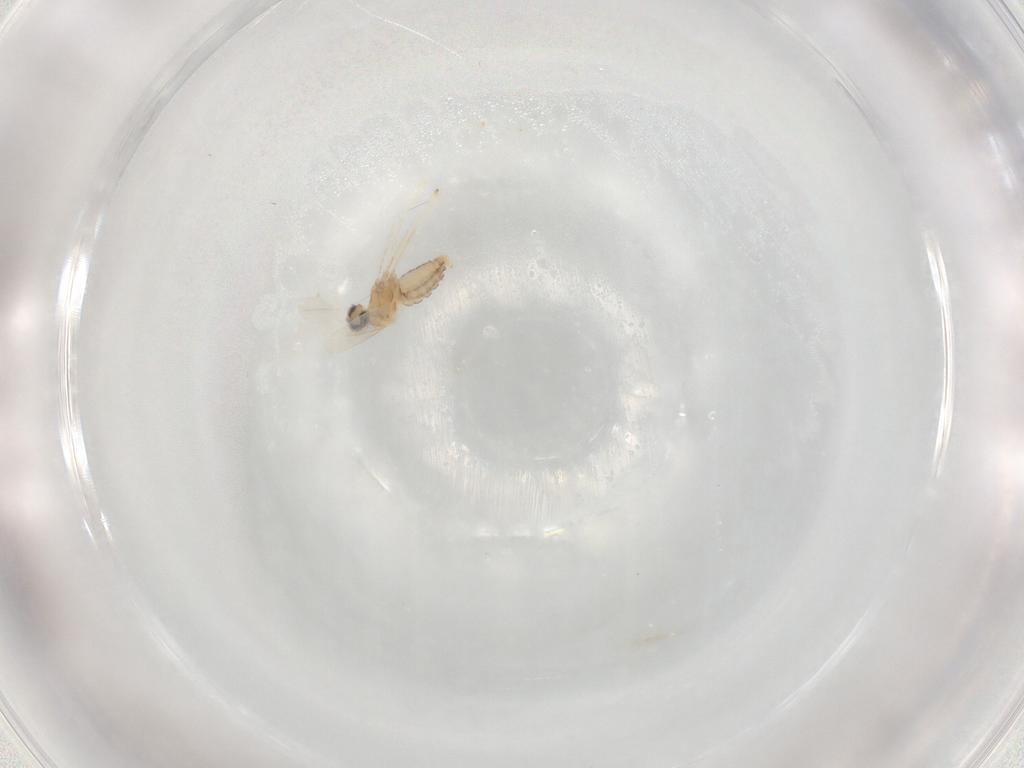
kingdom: Animalia
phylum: Arthropoda
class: Insecta
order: Diptera
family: Cecidomyiidae
